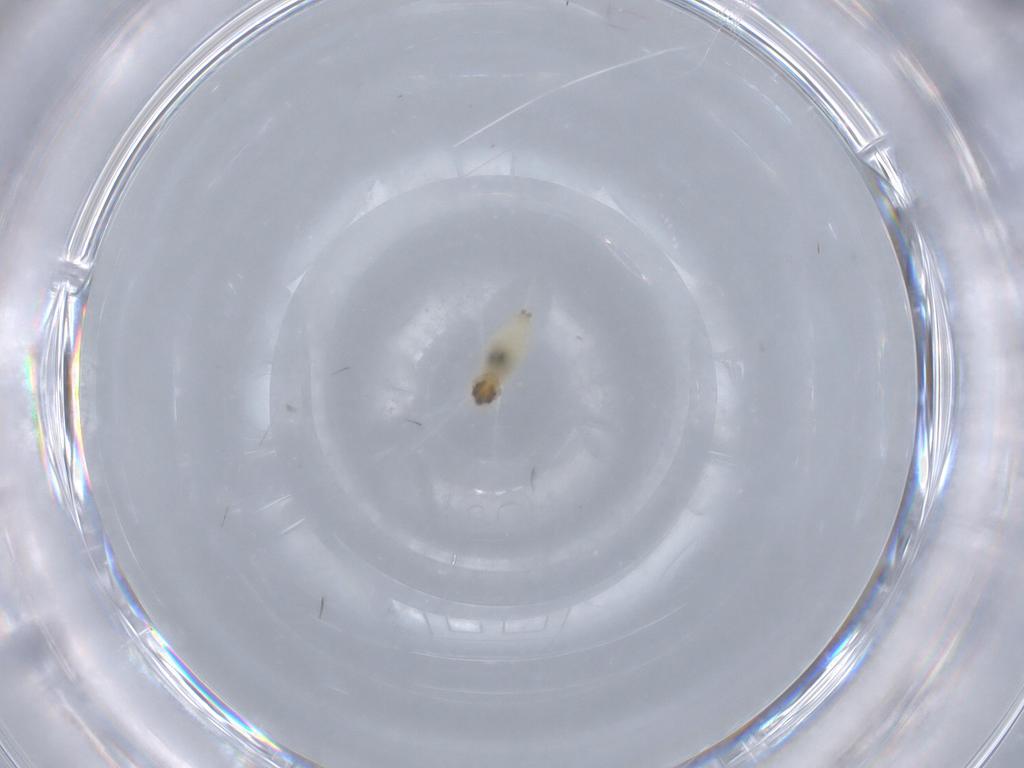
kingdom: Animalia
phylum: Arthropoda
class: Insecta
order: Diptera
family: Cecidomyiidae
